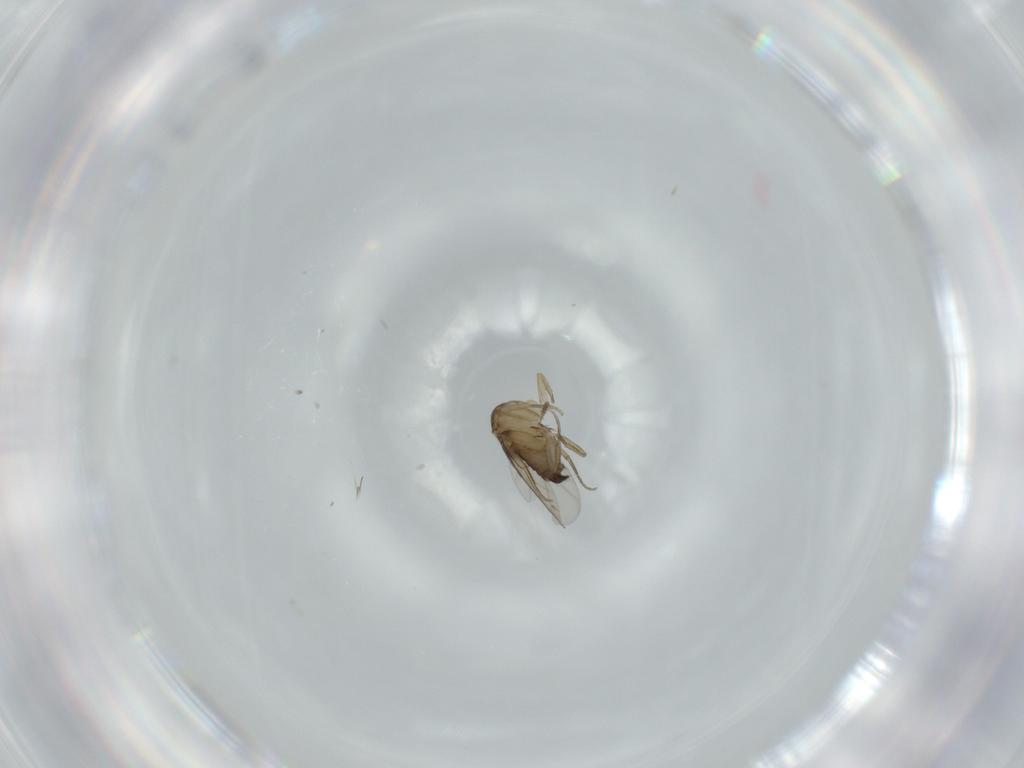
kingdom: Animalia
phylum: Arthropoda
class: Insecta
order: Diptera
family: Phoridae
